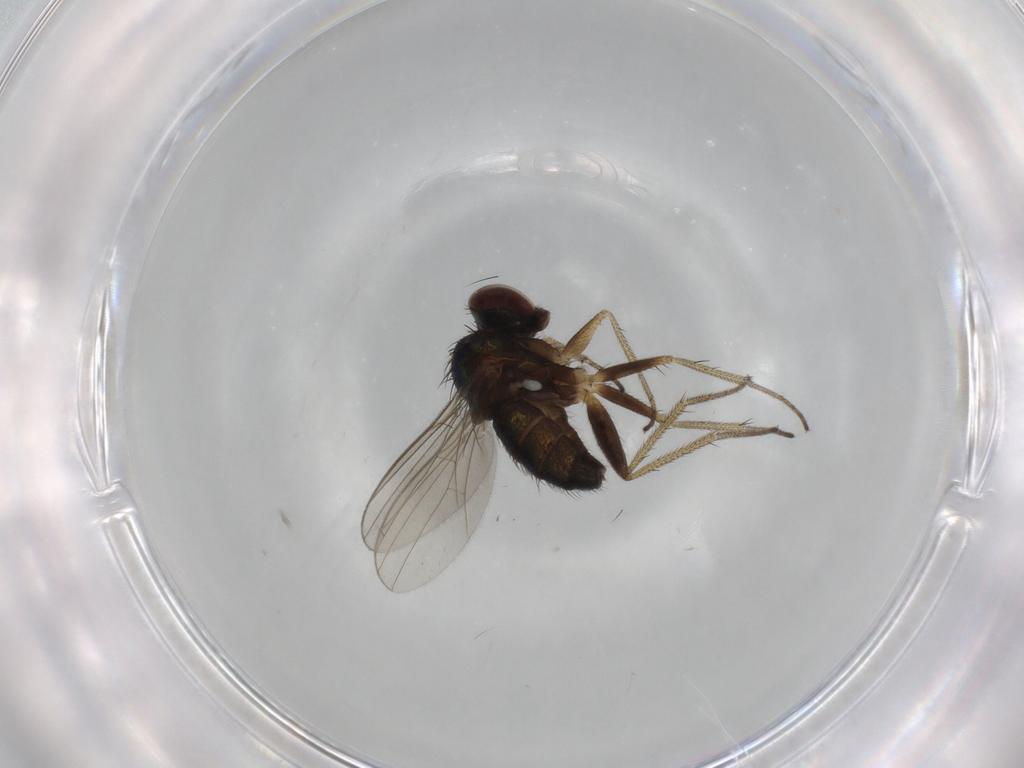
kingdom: Animalia
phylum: Arthropoda
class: Insecta
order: Diptera
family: Dolichopodidae
